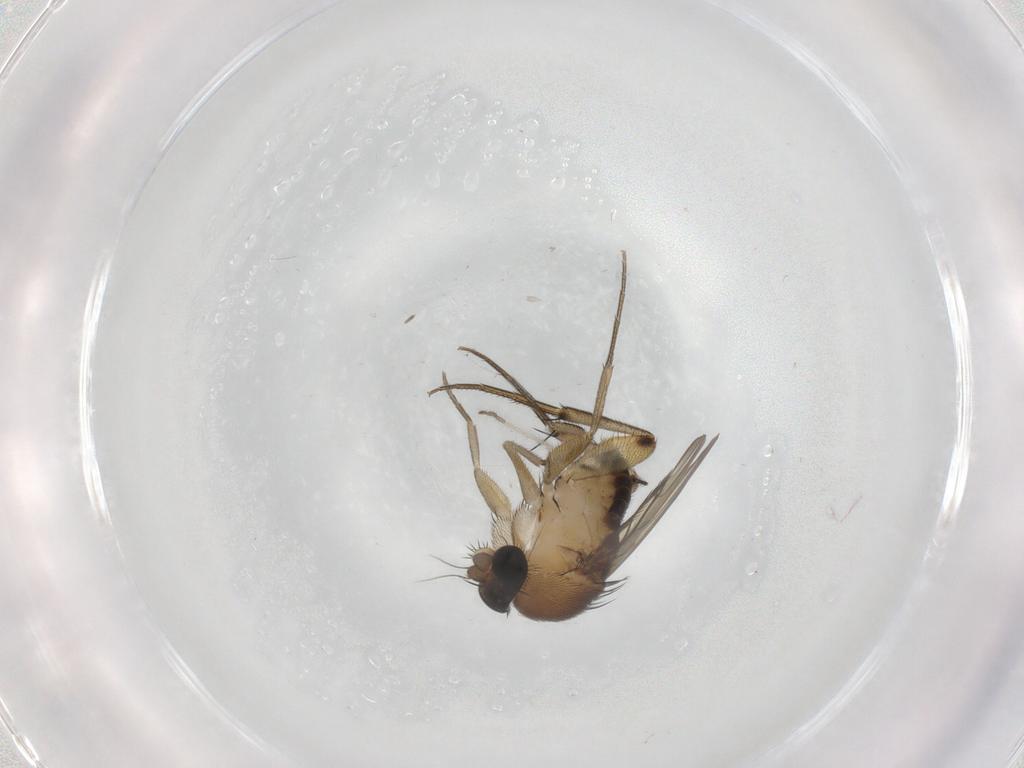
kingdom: Animalia
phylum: Arthropoda
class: Insecta
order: Diptera
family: Phoridae
